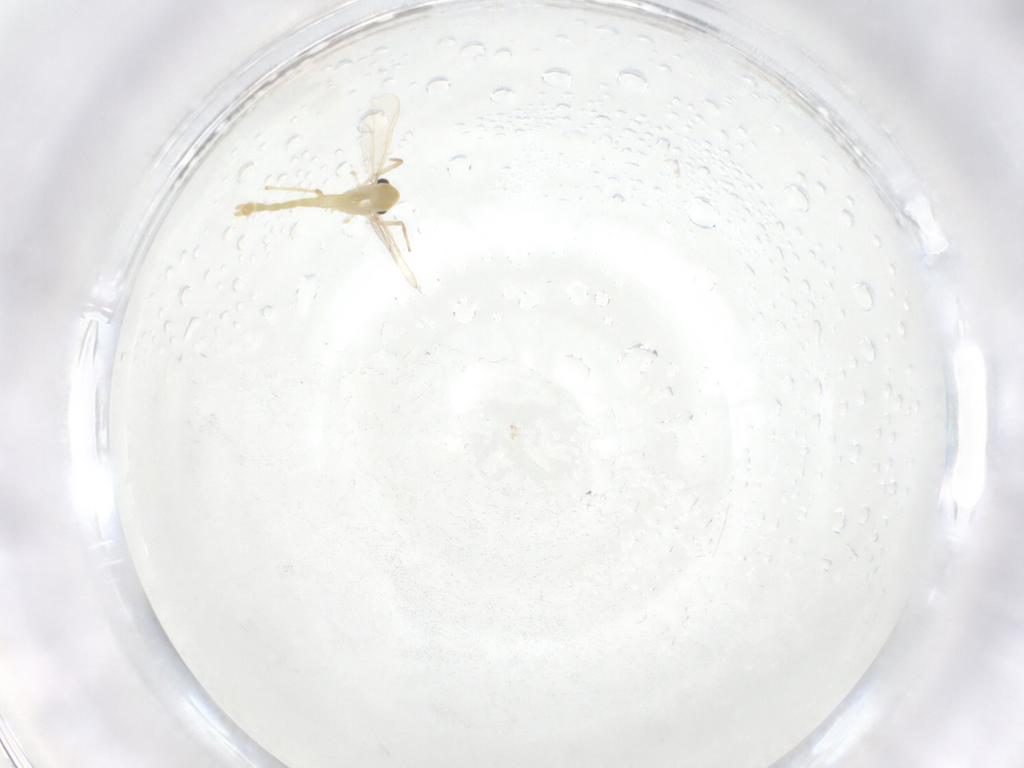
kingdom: Animalia
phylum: Arthropoda
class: Insecta
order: Diptera
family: Chironomidae
